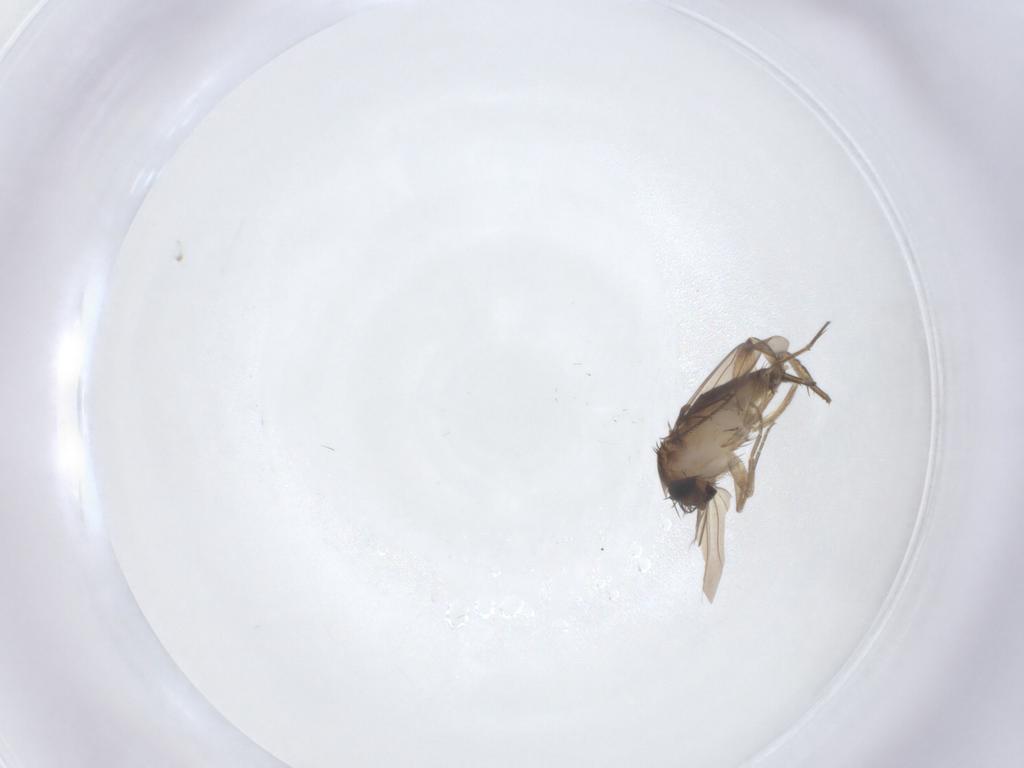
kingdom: Animalia
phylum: Arthropoda
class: Insecta
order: Diptera
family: Phoridae
